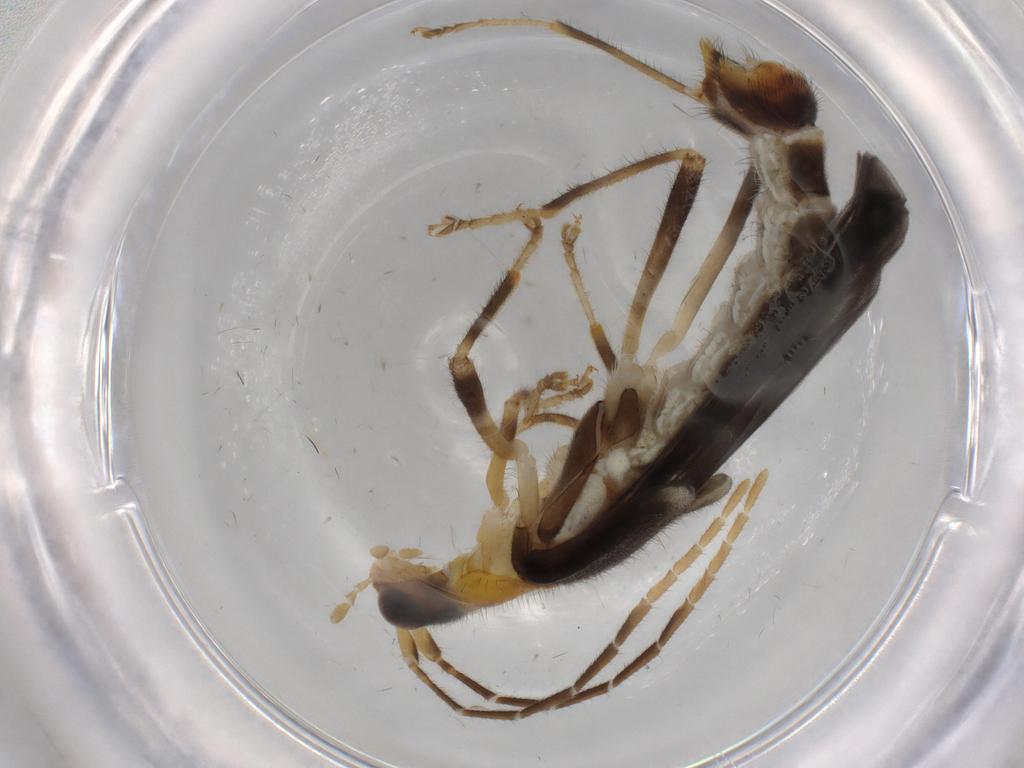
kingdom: Animalia
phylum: Arthropoda
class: Insecta
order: Coleoptera
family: Cantharidae
